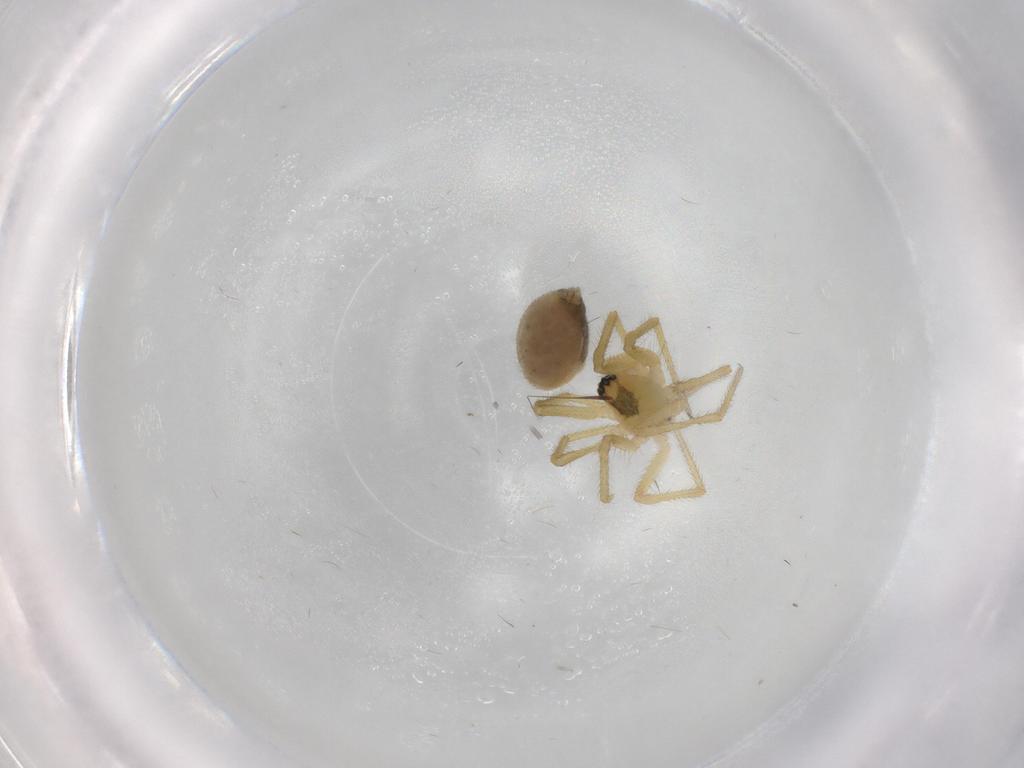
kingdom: Animalia
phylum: Arthropoda
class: Arachnida
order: Araneae
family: Linyphiidae
